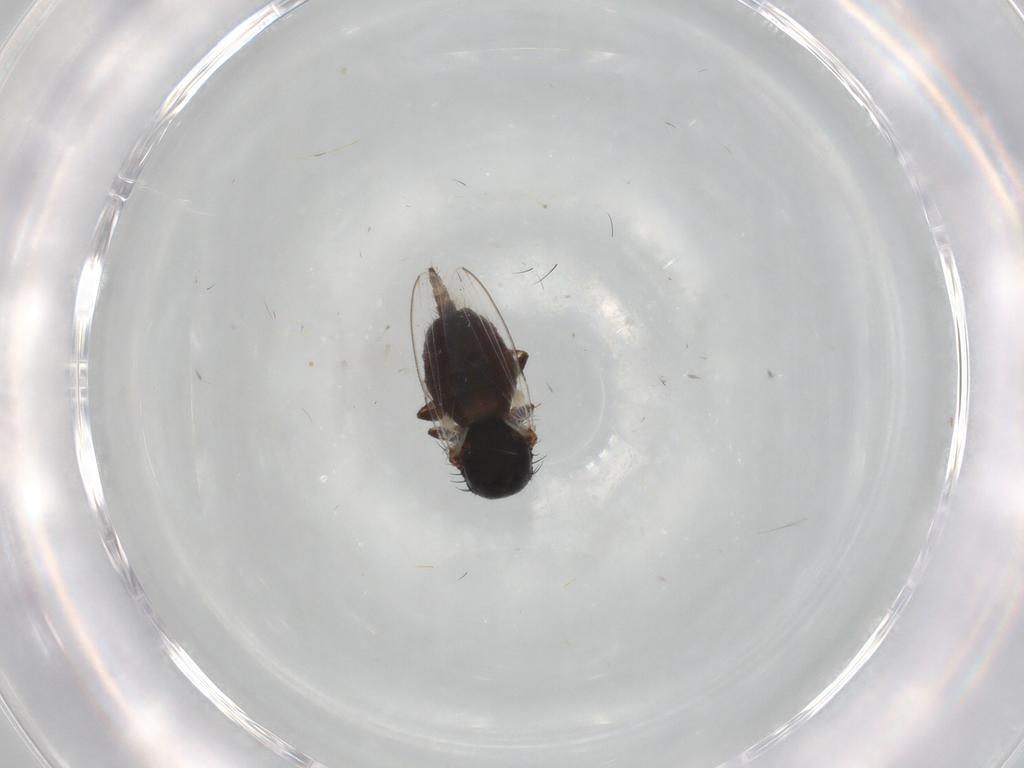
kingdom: Animalia
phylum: Arthropoda
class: Insecta
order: Diptera
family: Milichiidae
